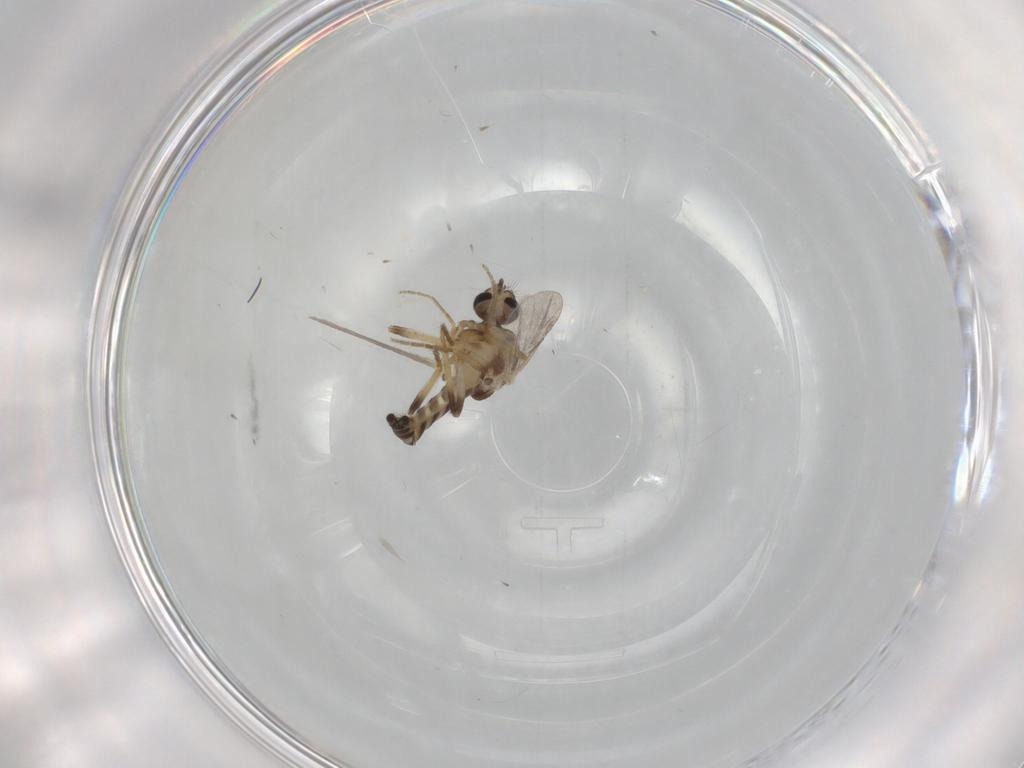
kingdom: Animalia
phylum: Arthropoda
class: Insecta
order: Diptera
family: Ceratopogonidae
